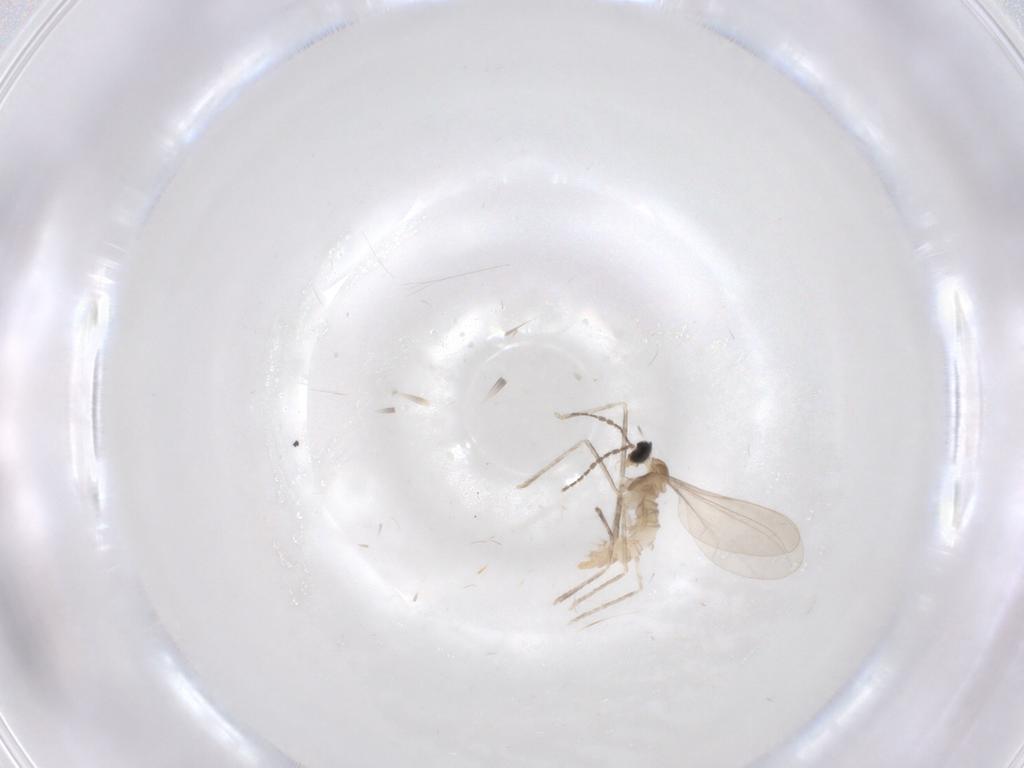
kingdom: Animalia
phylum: Arthropoda
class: Insecta
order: Diptera
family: Cecidomyiidae
